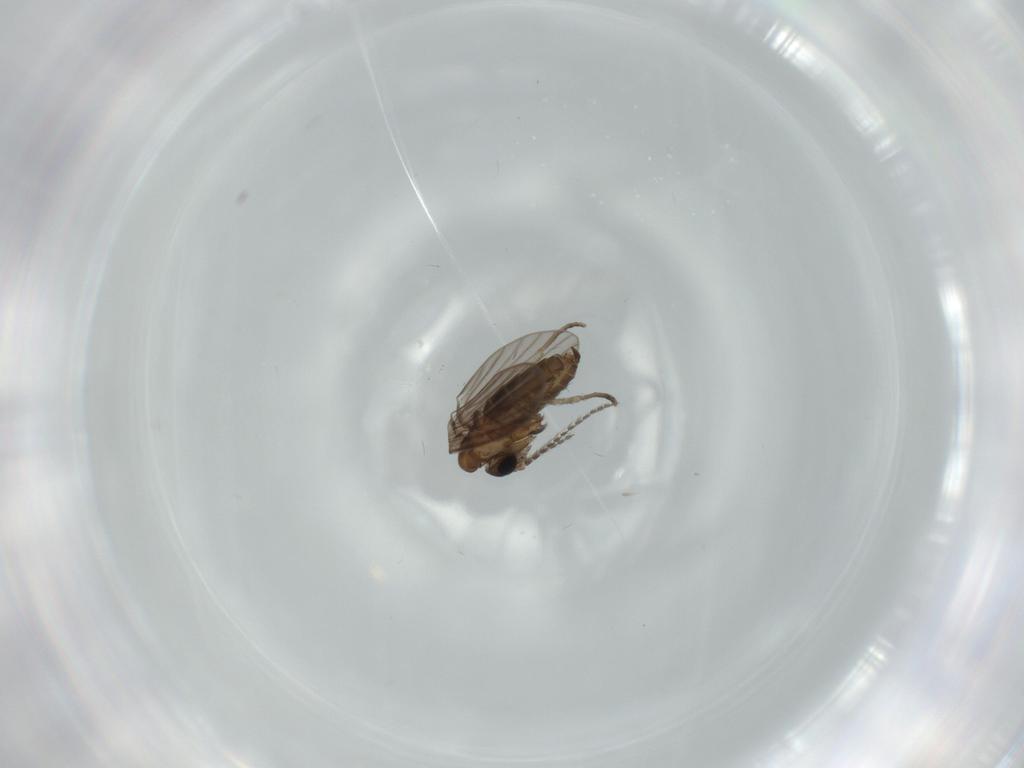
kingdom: Animalia
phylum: Arthropoda
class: Insecta
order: Diptera
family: Psychodidae
